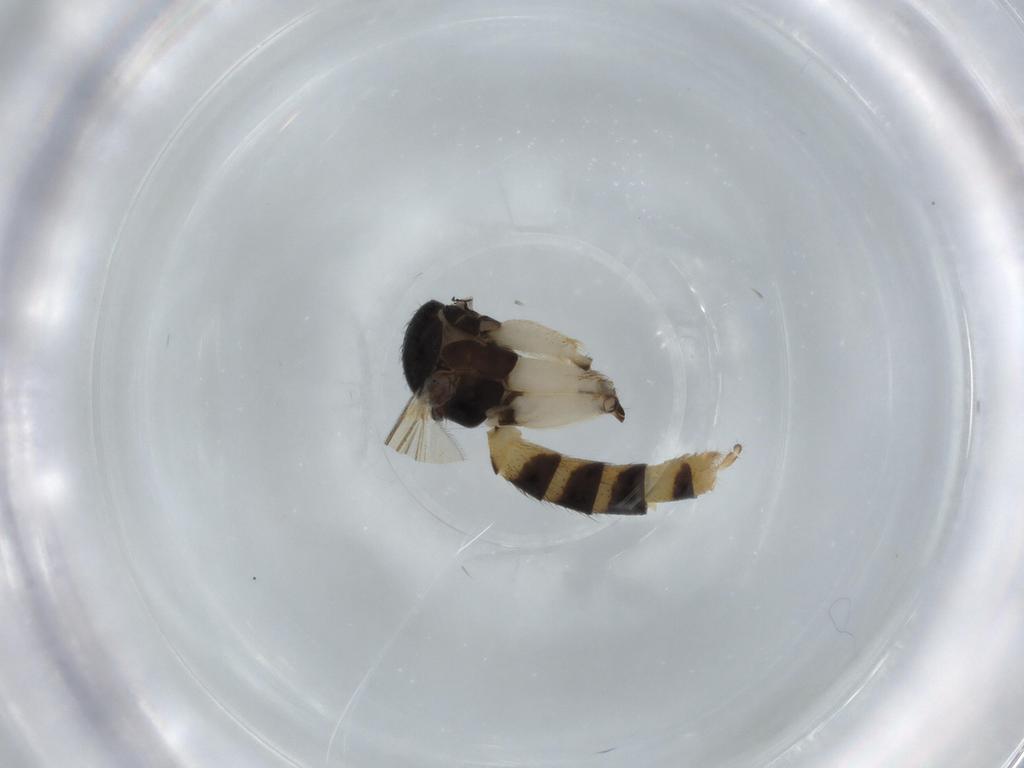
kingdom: Animalia
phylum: Arthropoda
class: Insecta
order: Diptera
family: Mycetophilidae
